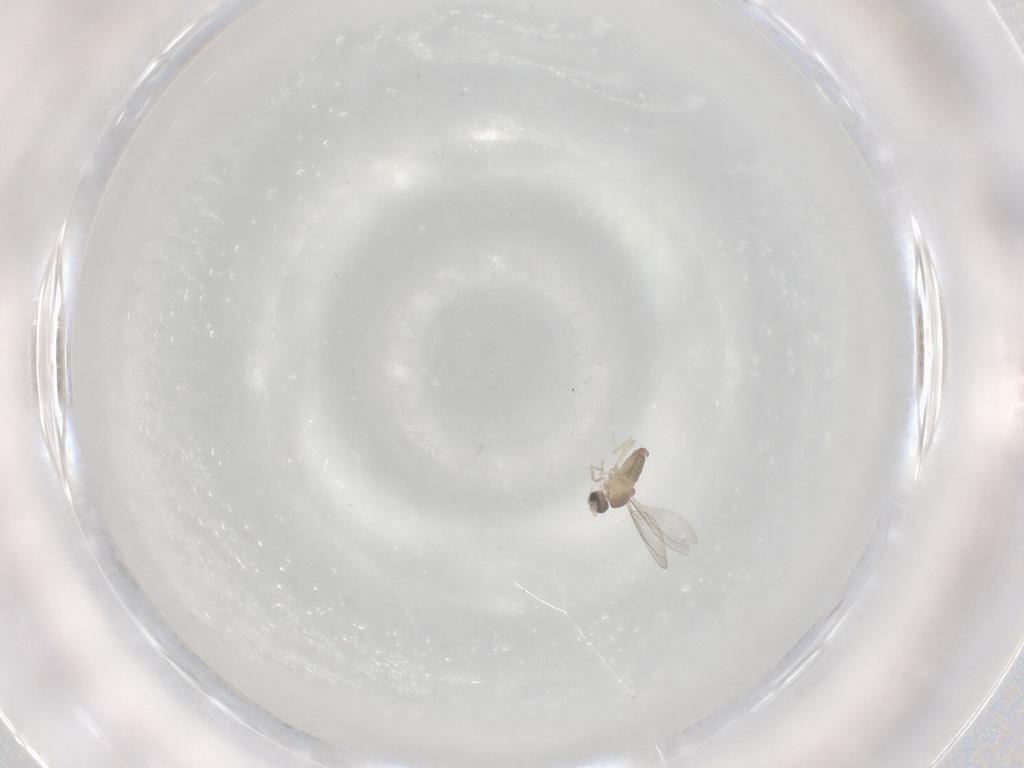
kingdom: Animalia
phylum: Arthropoda
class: Insecta
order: Diptera
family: Cecidomyiidae
